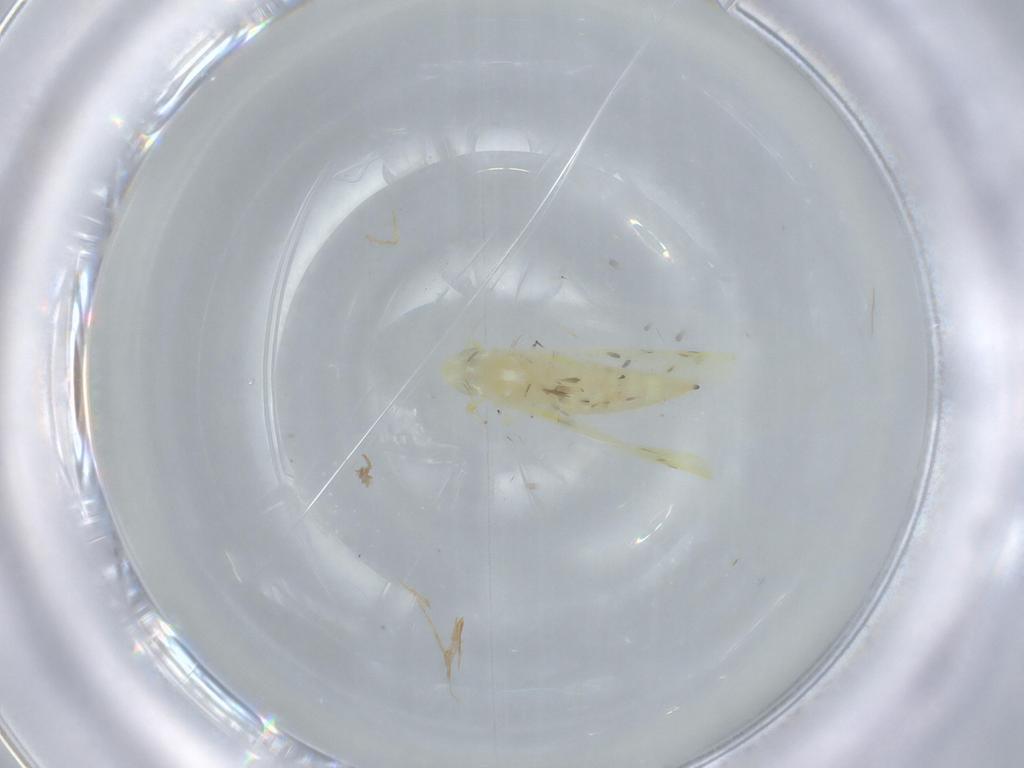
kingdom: Animalia
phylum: Arthropoda
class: Insecta
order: Hemiptera
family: Cicadellidae
